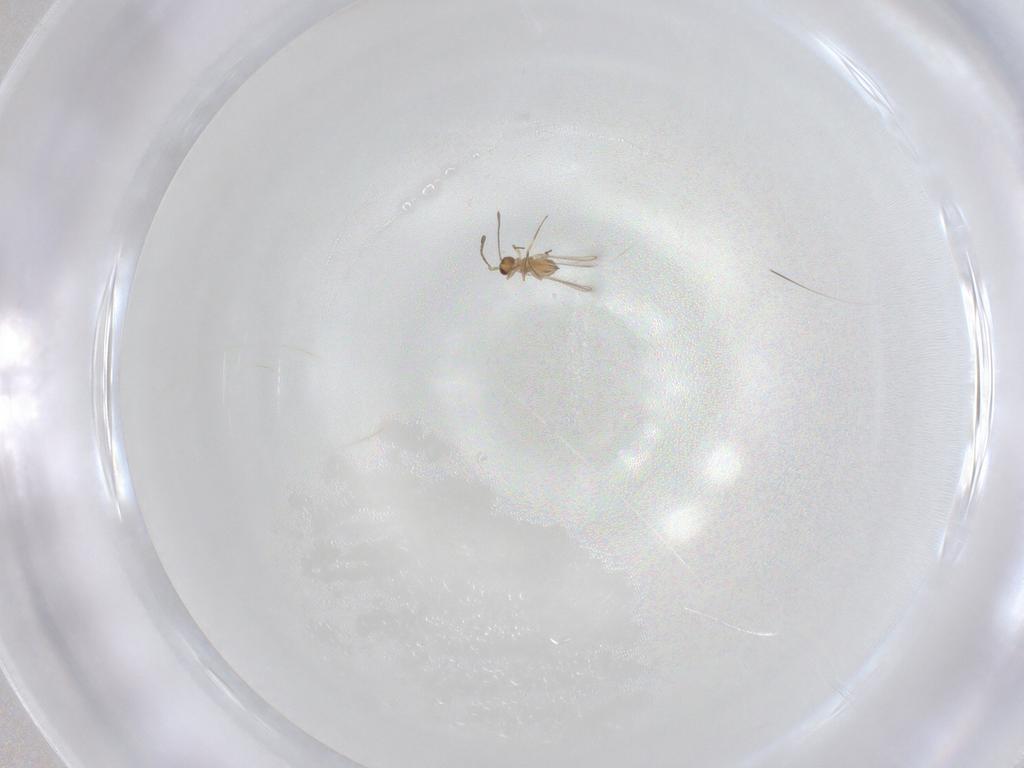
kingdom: Animalia
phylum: Arthropoda
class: Insecta
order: Hymenoptera
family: Mymaridae
